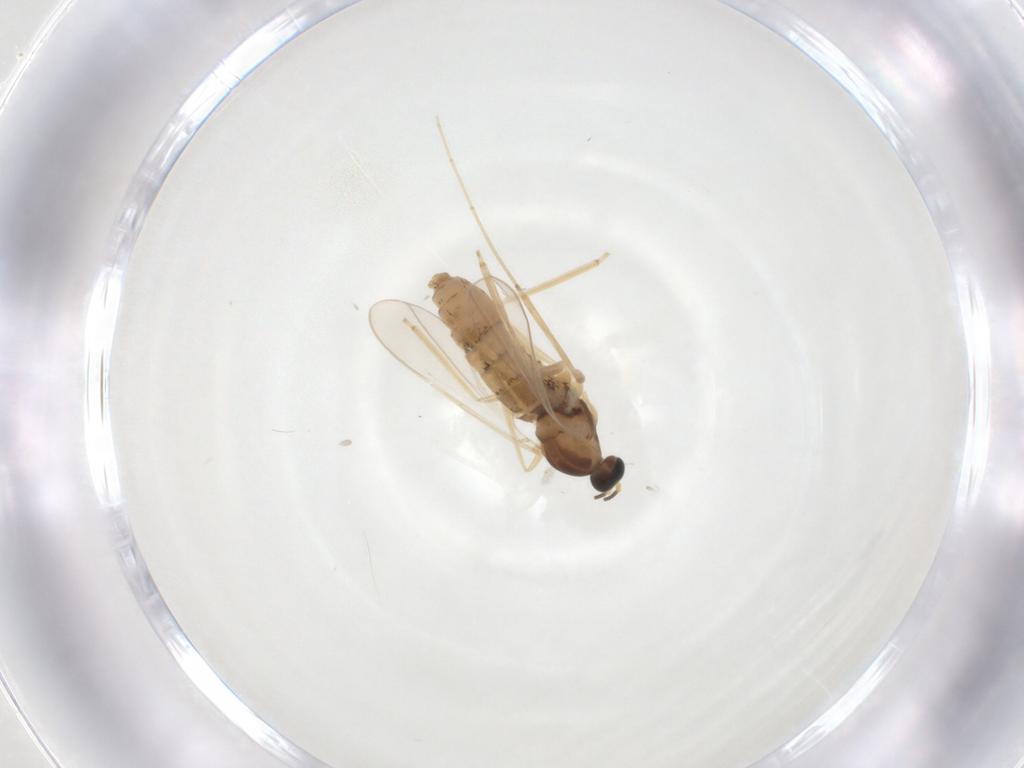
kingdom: Animalia
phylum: Arthropoda
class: Insecta
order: Diptera
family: Cecidomyiidae
